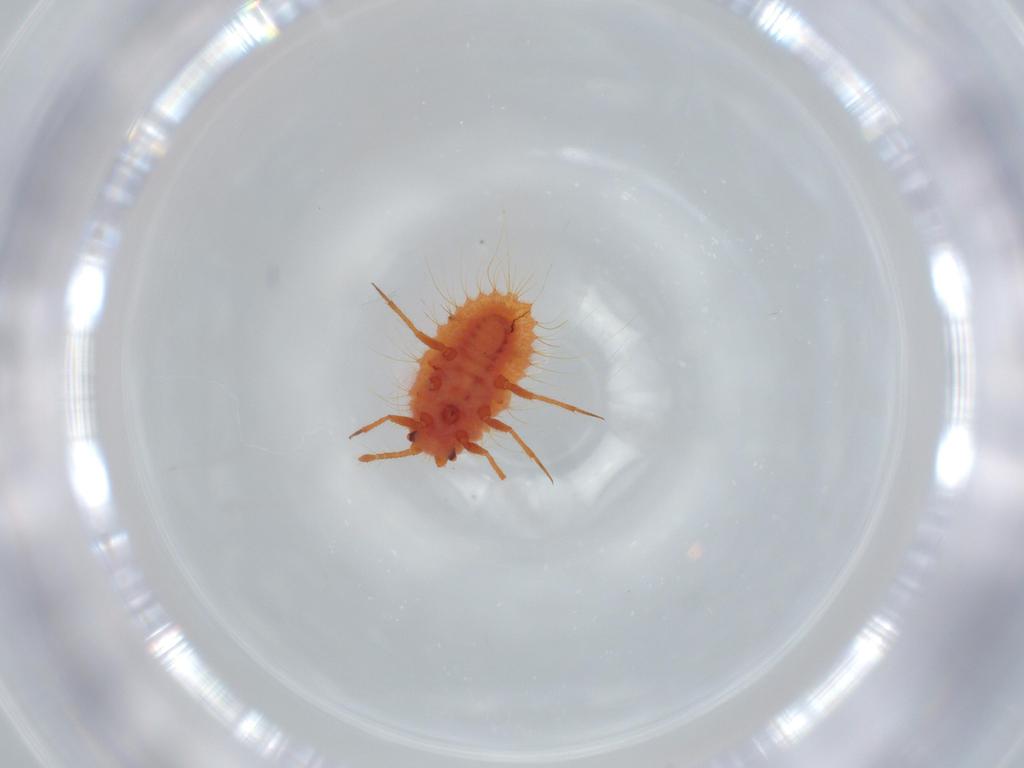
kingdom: Animalia
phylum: Arthropoda
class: Insecta
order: Hemiptera
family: Coccoidea_incertae_sedis
